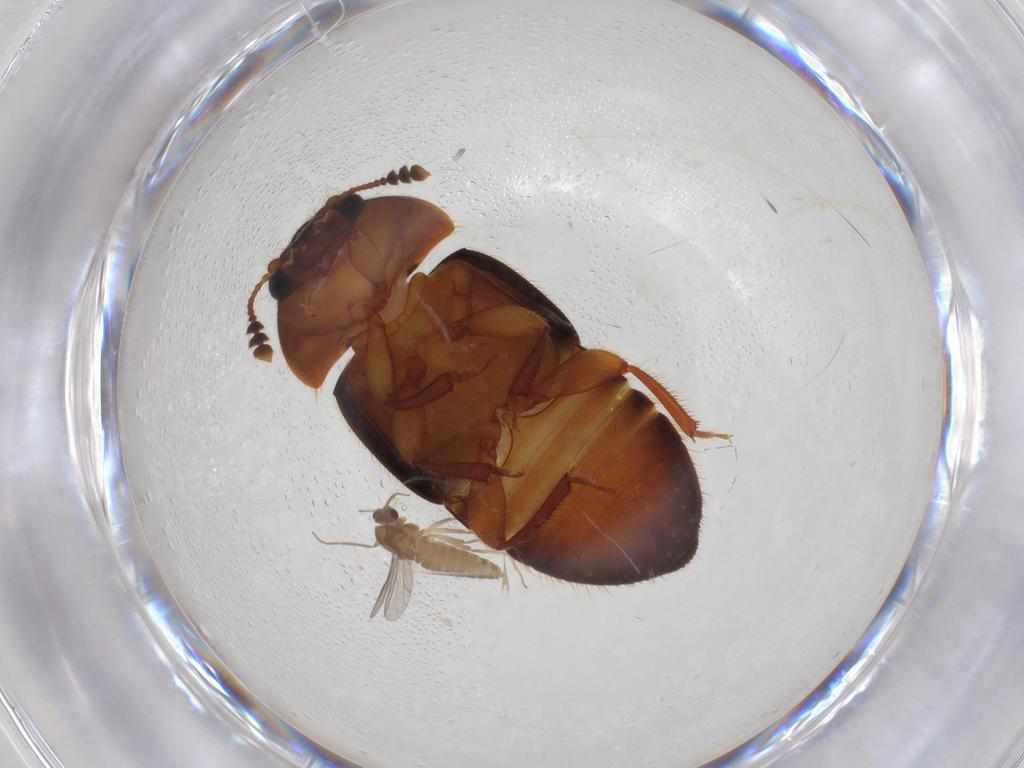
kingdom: Animalia
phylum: Arthropoda
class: Insecta
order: Coleoptera
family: Nitidulidae
